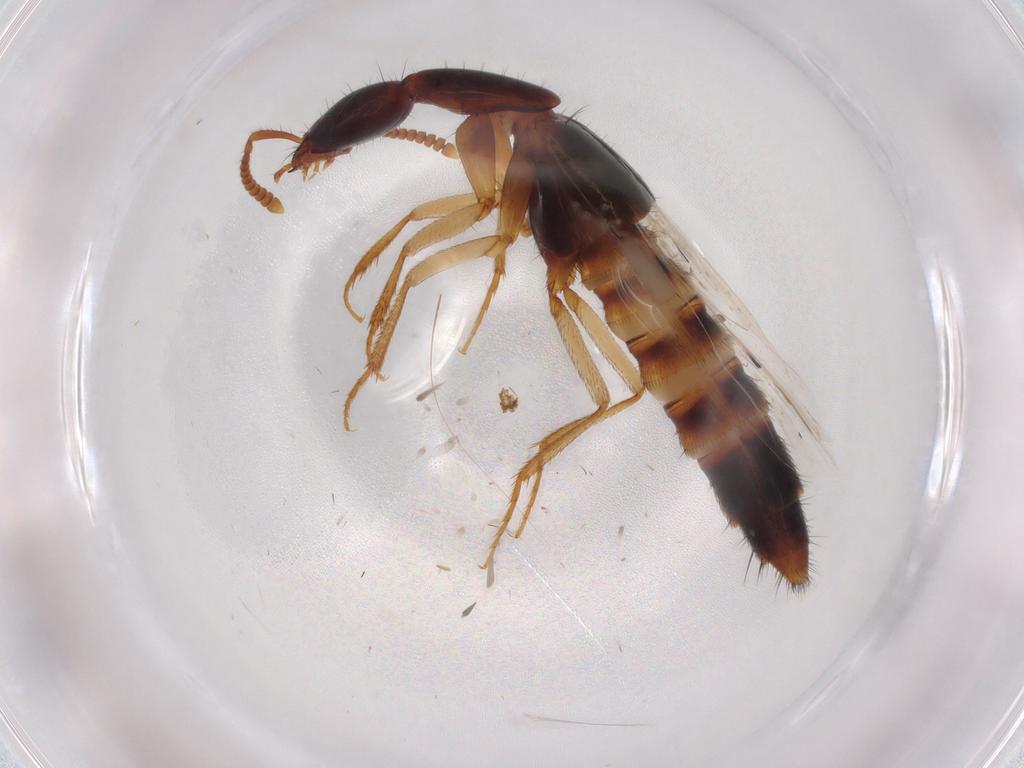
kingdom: Animalia
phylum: Arthropoda
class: Insecta
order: Coleoptera
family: Staphylinidae
